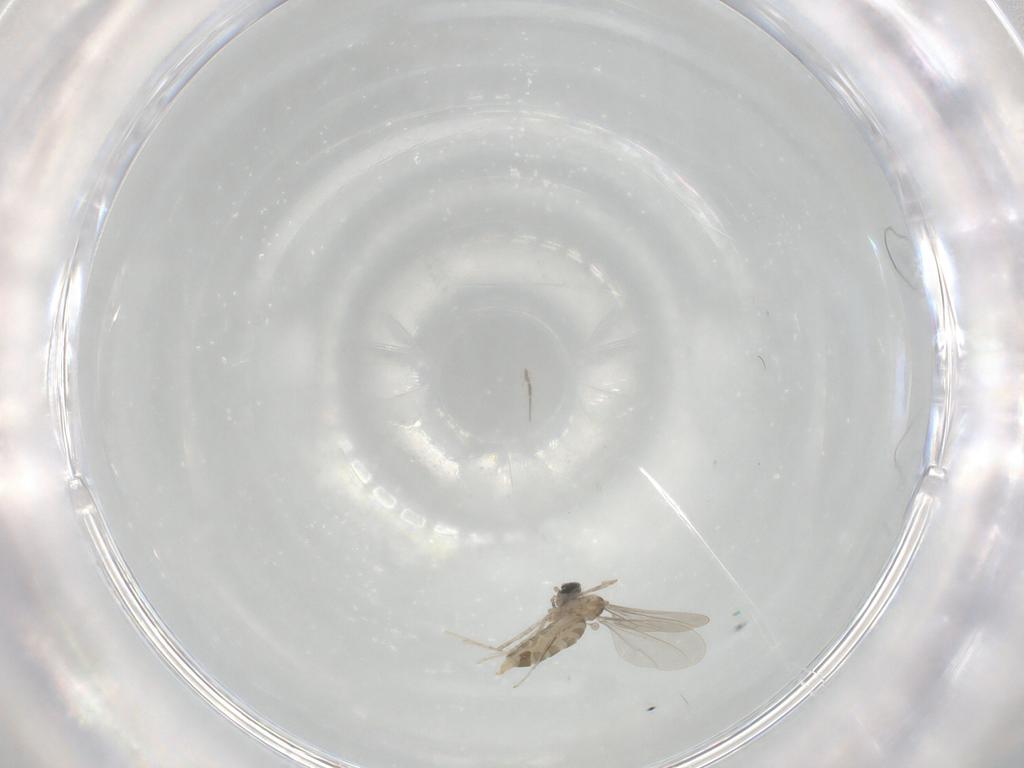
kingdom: Animalia
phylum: Arthropoda
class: Insecta
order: Diptera
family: Cecidomyiidae
